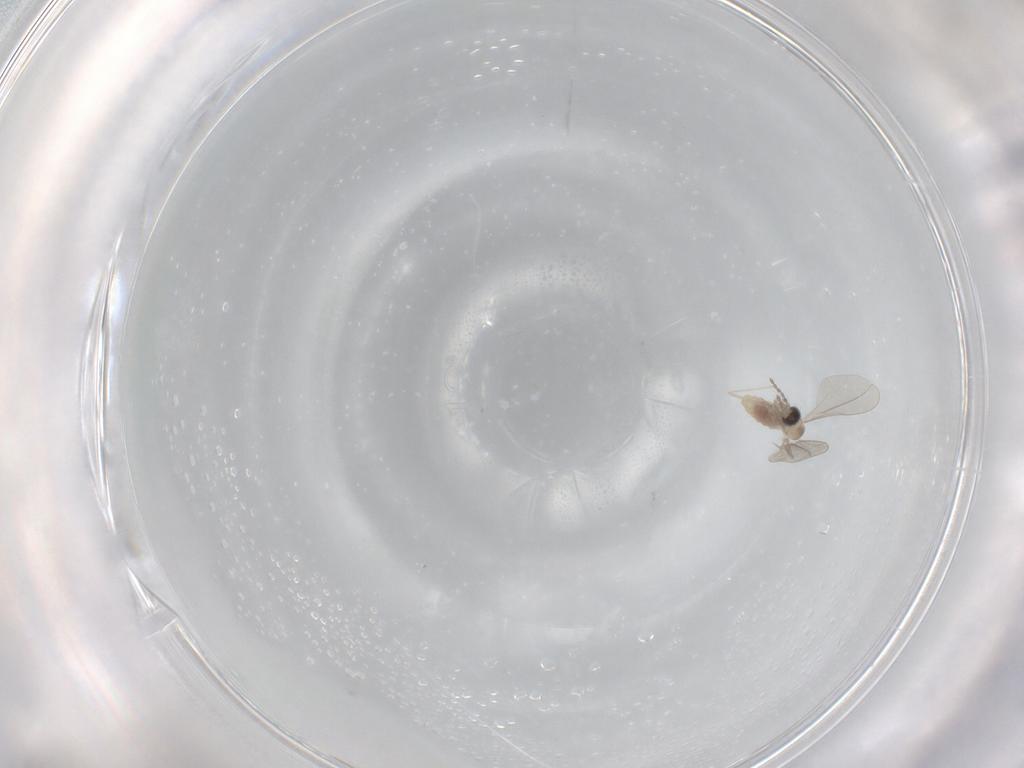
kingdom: Animalia
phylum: Arthropoda
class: Insecta
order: Diptera
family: Cecidomyiidae
